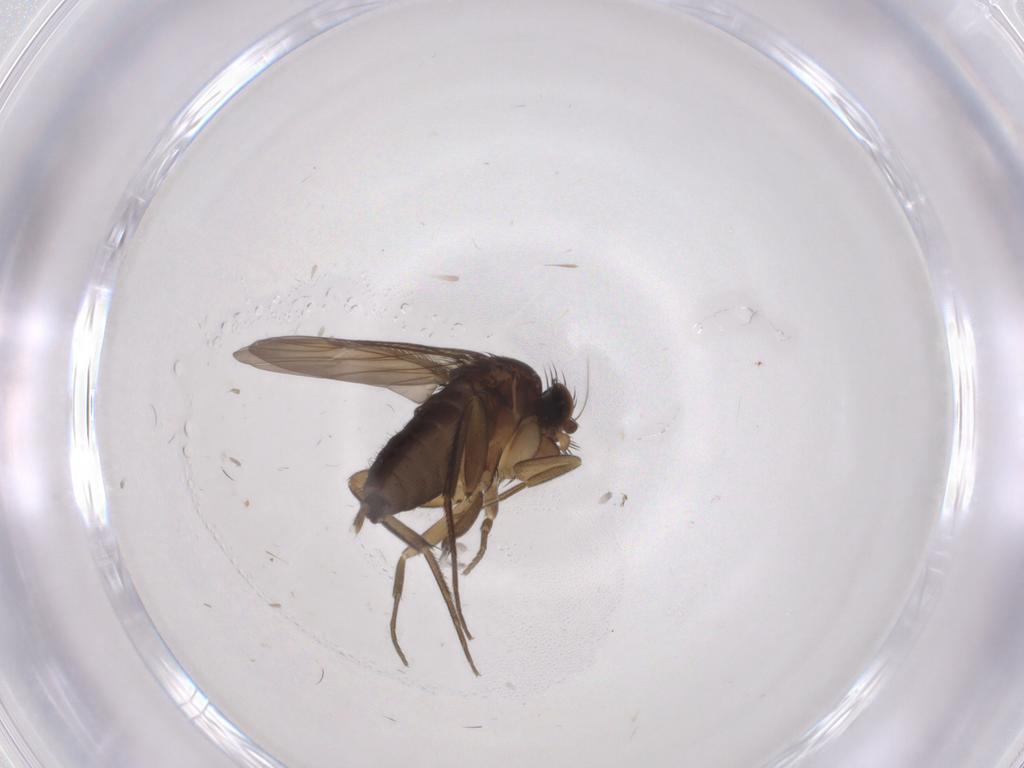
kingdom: Animalia
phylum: Arthropoda
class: Insecta
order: Diptera
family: Phoridae
